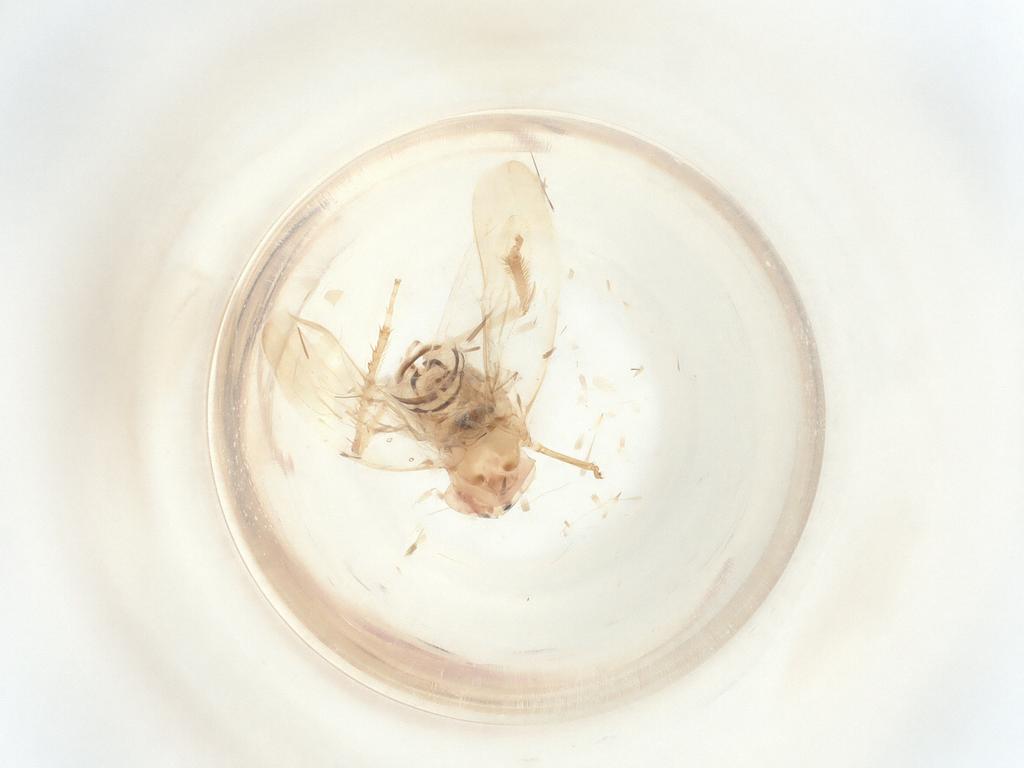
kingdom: Animalia
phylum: Arthropoda
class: Insecta
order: Hemiptera
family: Cicadellidae
